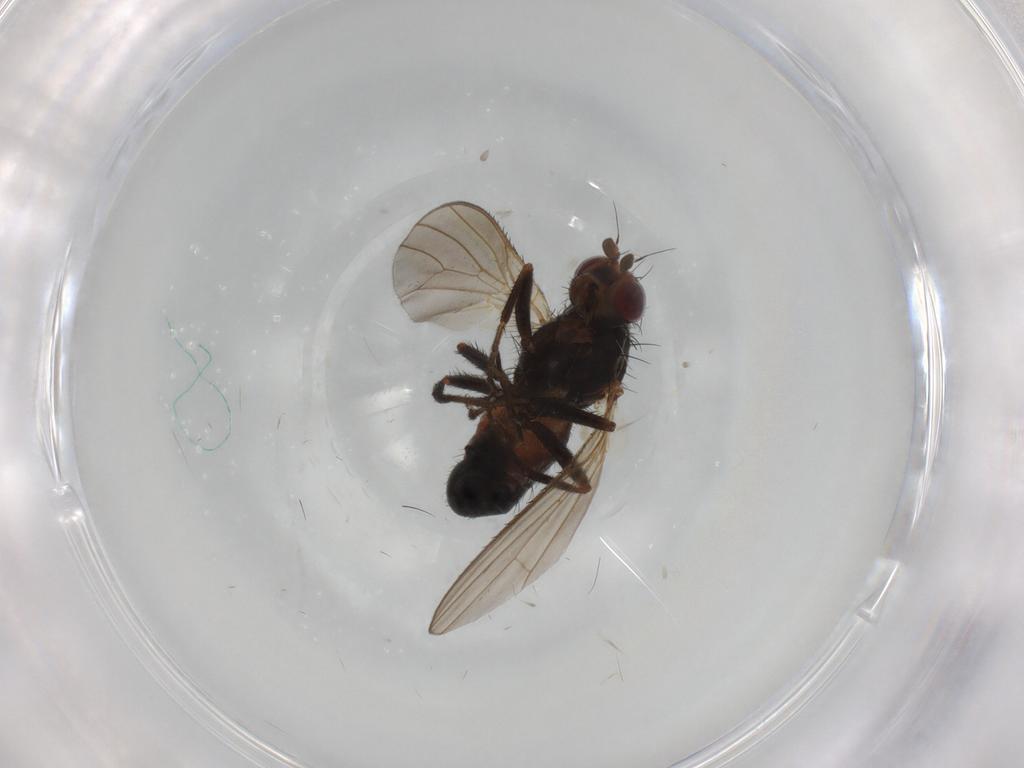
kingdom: Animalia
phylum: Arthropoda
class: Insecta
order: Diptera
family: Heleomyzidae
